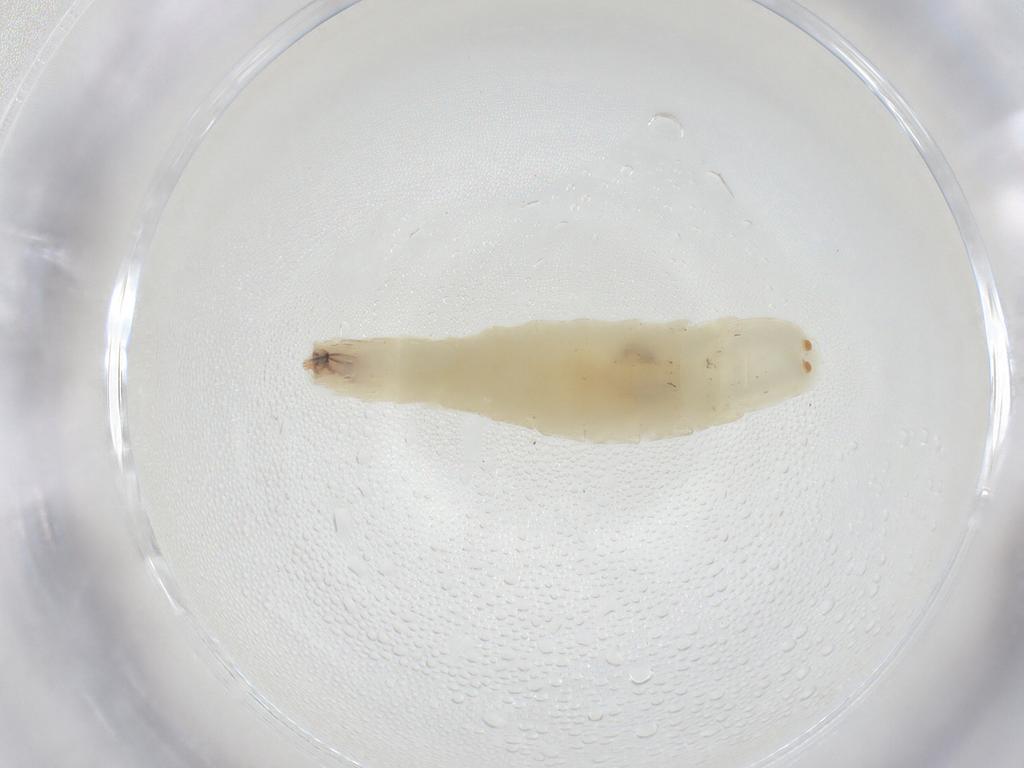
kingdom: Animalia
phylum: Arthropoda
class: Insecta
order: Diptera
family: Empididae
